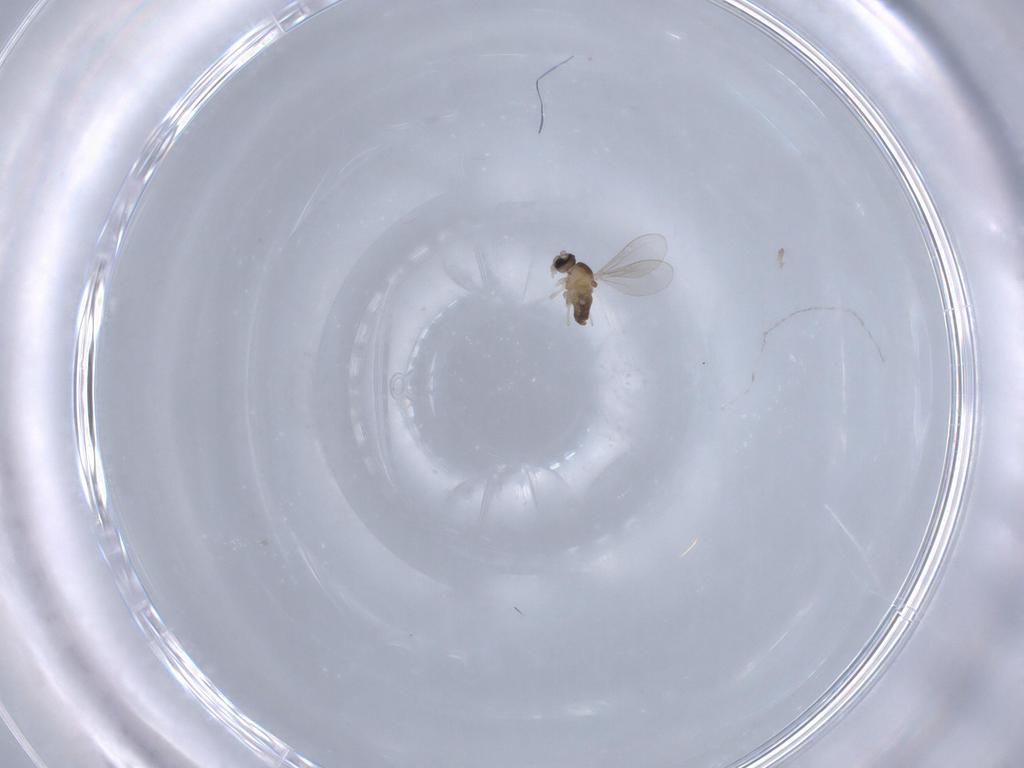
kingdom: Animalia
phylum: Arthropoda
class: Insecta
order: Diptera
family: Cecidomyiidae
